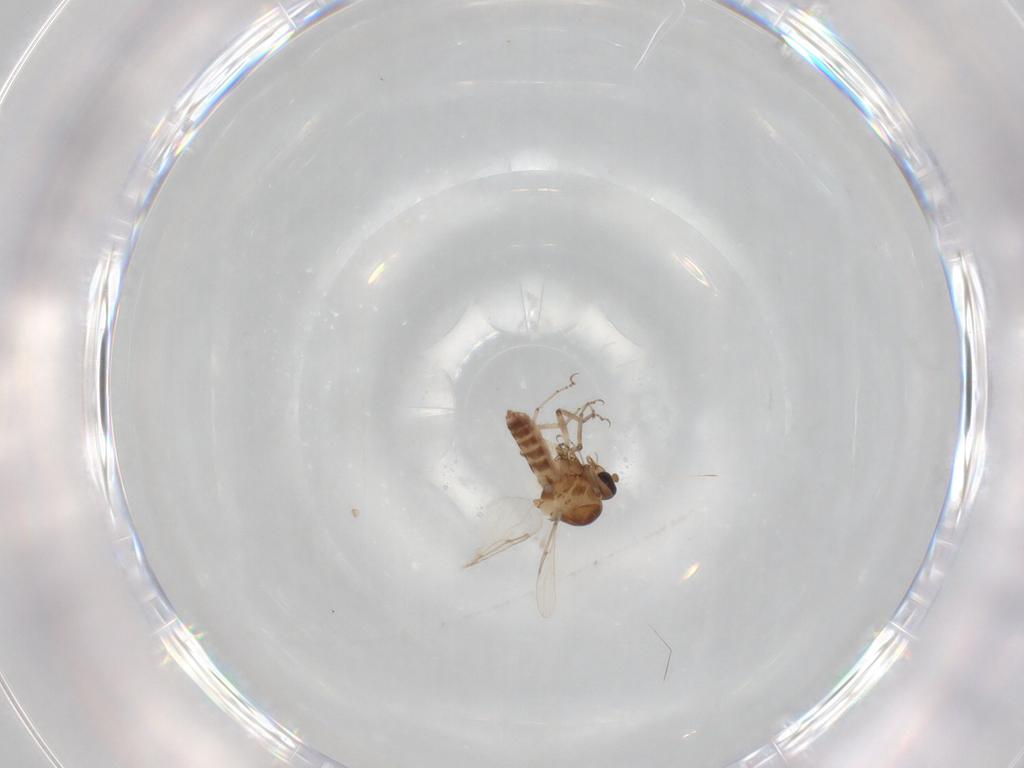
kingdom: Animalia
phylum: Arthropoda
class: Insecta
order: Diptera
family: Ceratopogonidae
